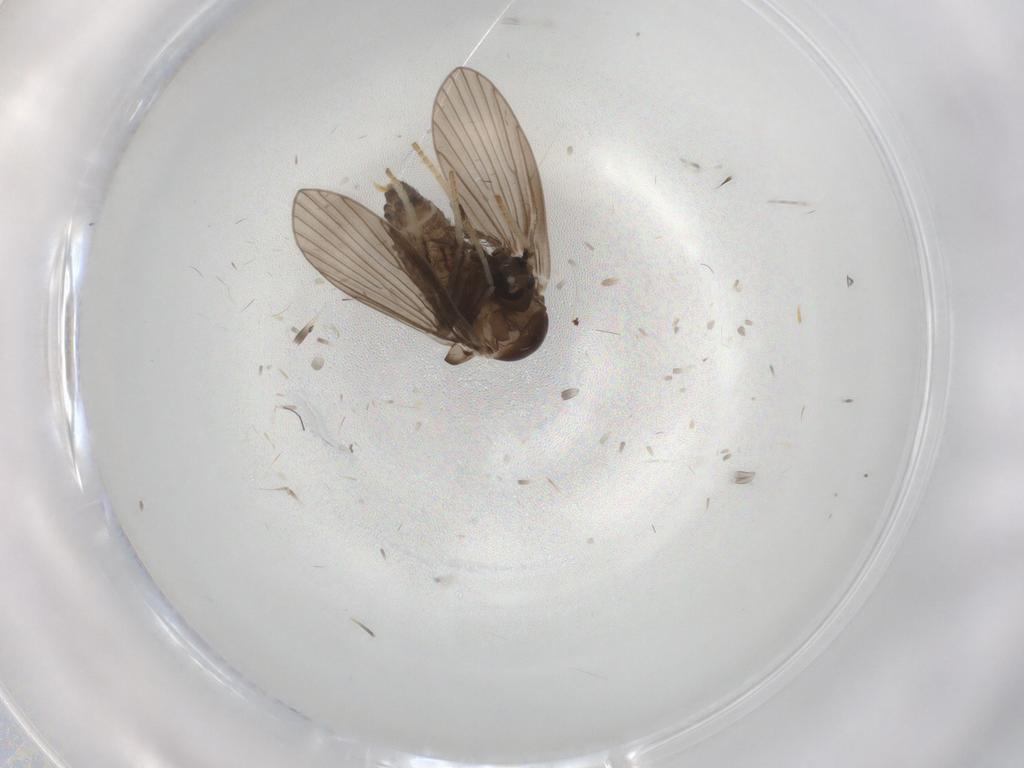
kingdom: Animalia
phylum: Arthropoda
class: Insecta
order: Diptera
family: Psychodidae
